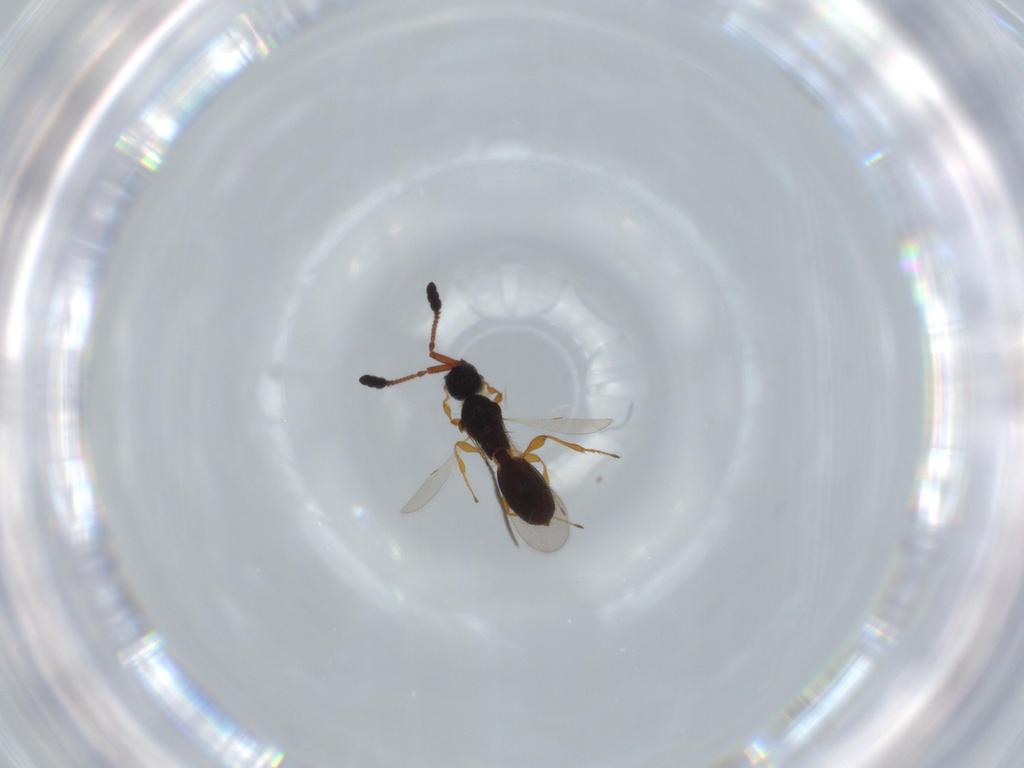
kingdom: Animalia
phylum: Arthropoda
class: Insecta
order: Hymenoptera
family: Diapriidae
